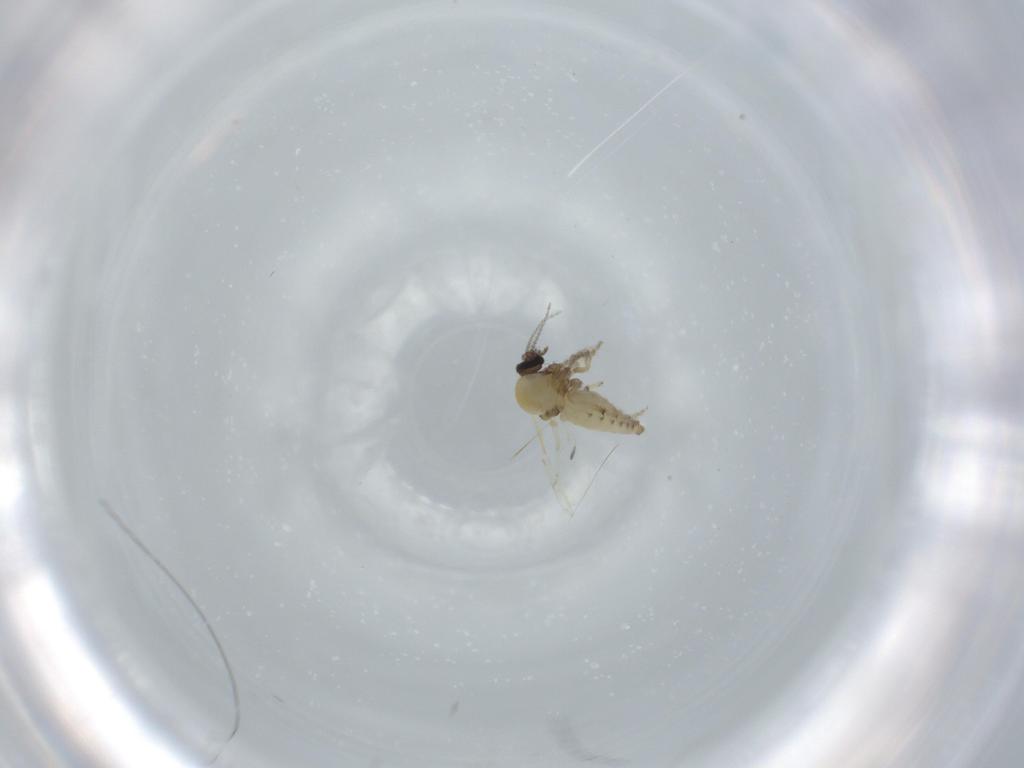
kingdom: Animalia
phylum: Arthropoda
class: Insecta
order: Diptera
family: Ceratopogonidae
